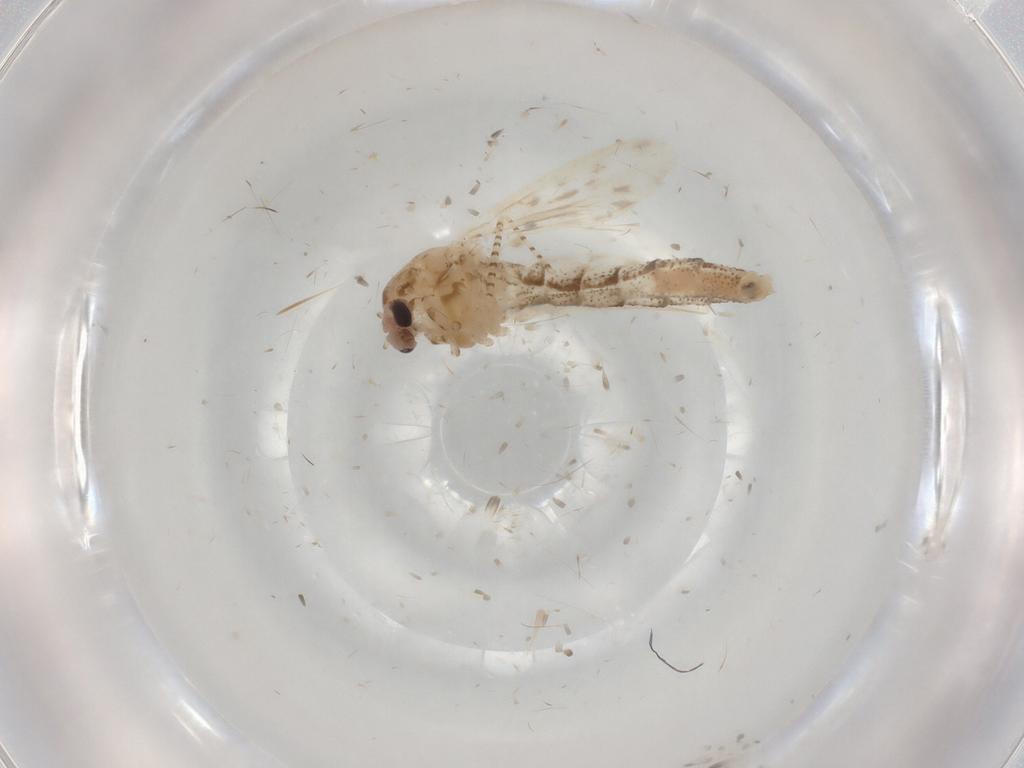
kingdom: Animalia
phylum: Arthropoda
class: Insecta
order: Diptera
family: Chaoboridae
